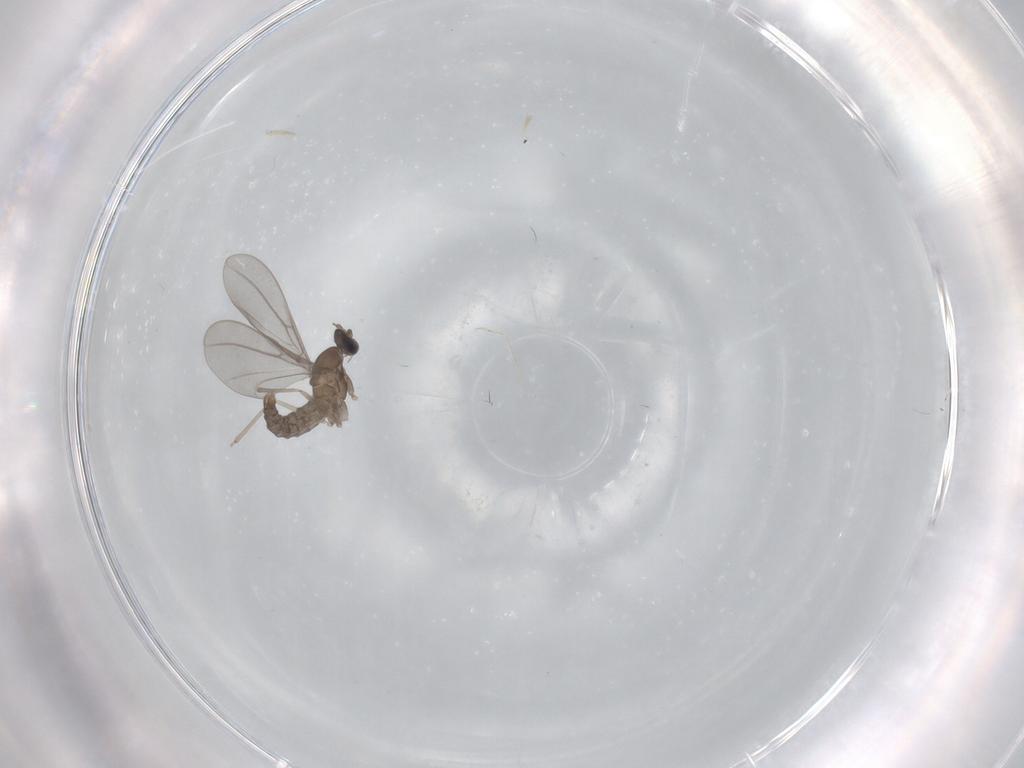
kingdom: Animalia
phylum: Arthropoda
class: Insecta
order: Diptera
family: Cecidomyiidae
